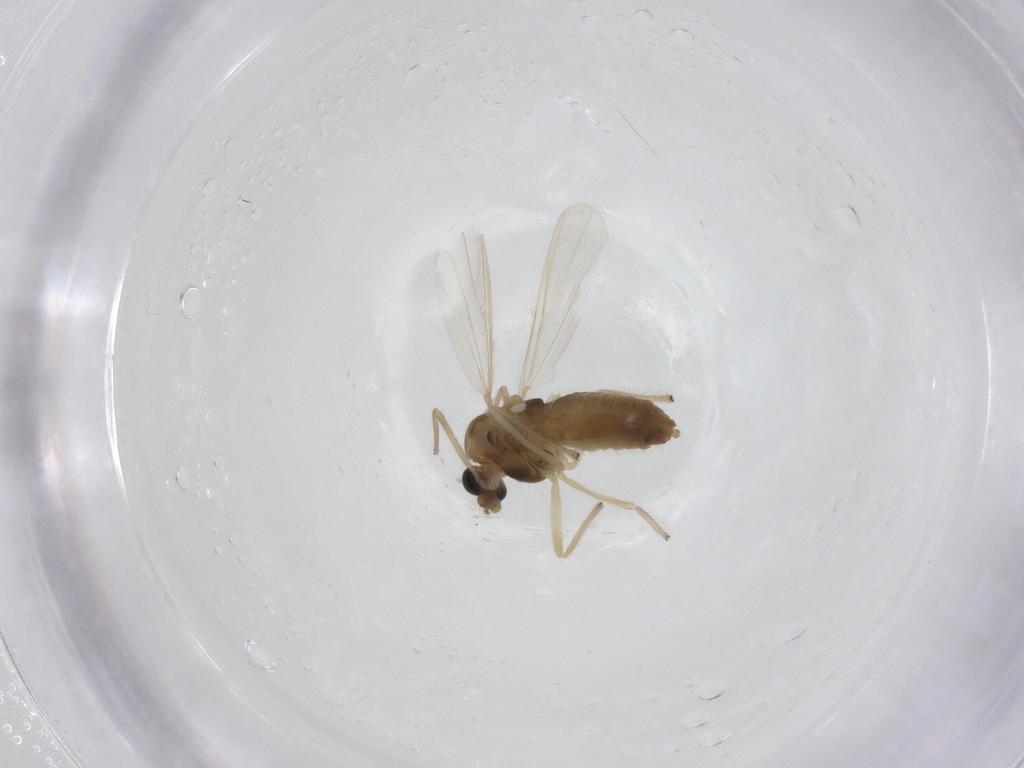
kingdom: Animalia
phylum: Arthropoda
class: Insecta
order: Diptera
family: Chironomidae
